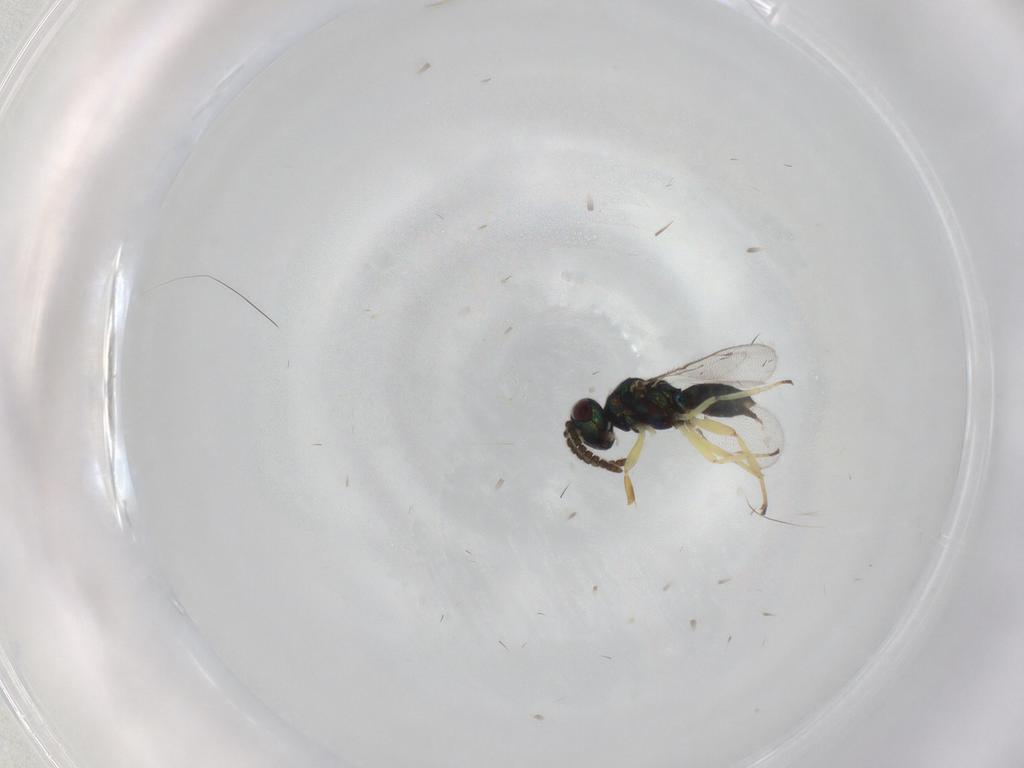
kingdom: Animalia
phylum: Arthropoda
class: Insecta
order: Hymenoptera
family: Eupelmidae
